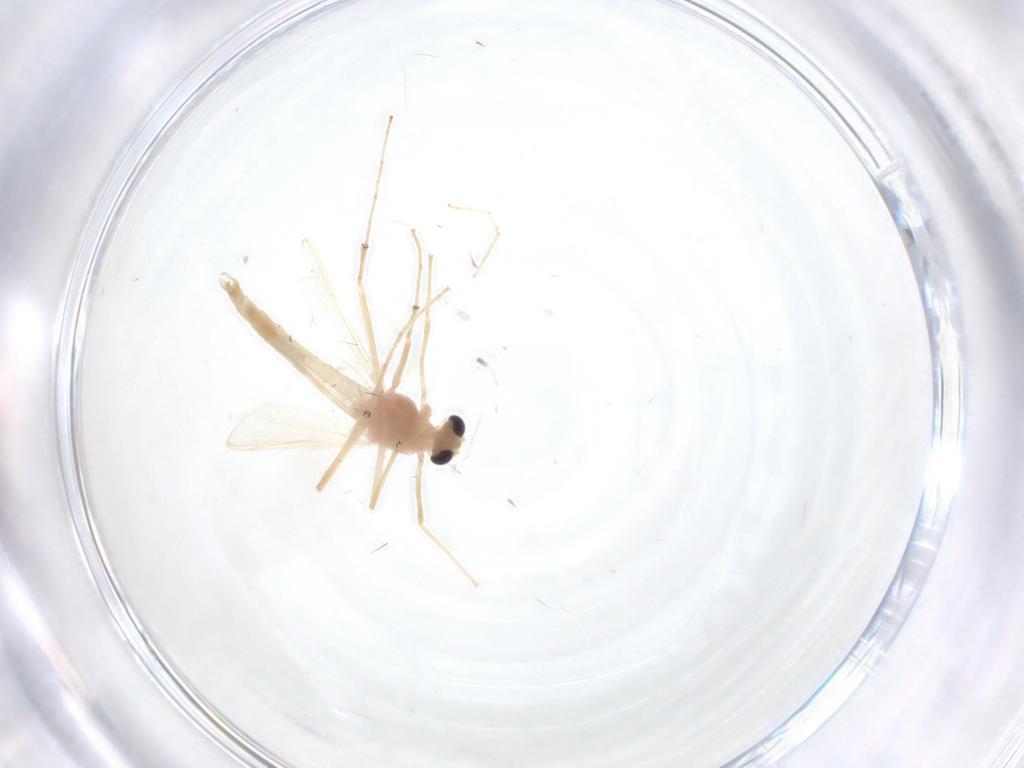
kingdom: Animalia
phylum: Arthropoda
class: Insecta
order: Diptera
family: Chironomidae
